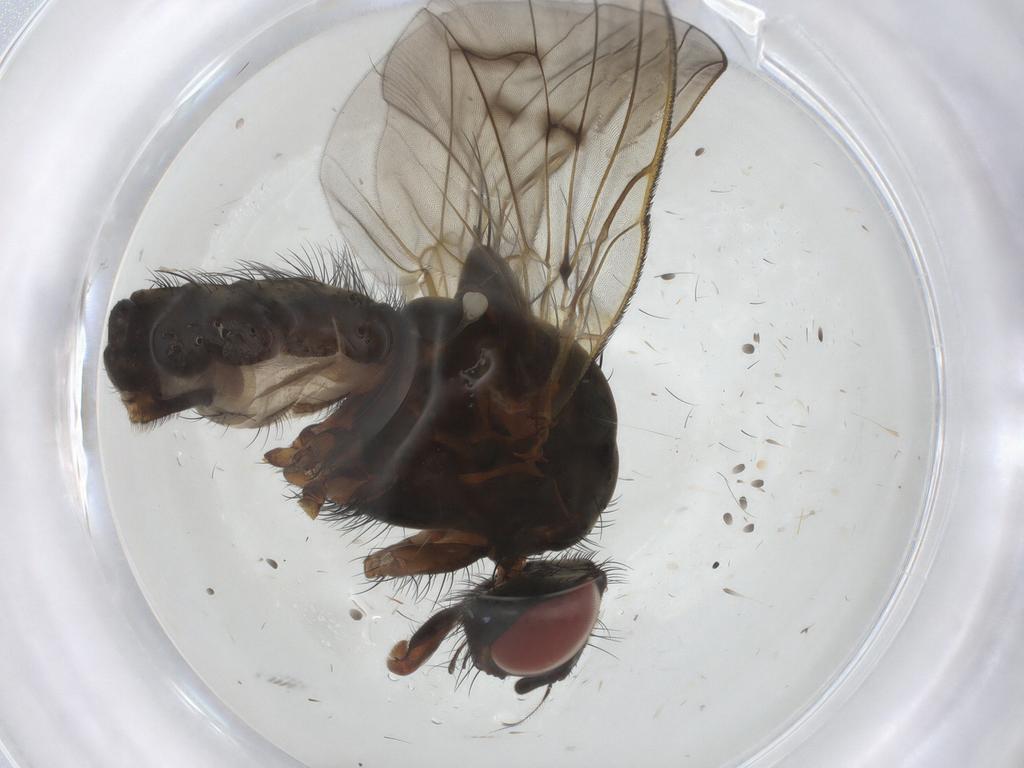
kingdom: Animalia
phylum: Arthropoda
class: Insecta
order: Diptera
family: Anthomyiidae
